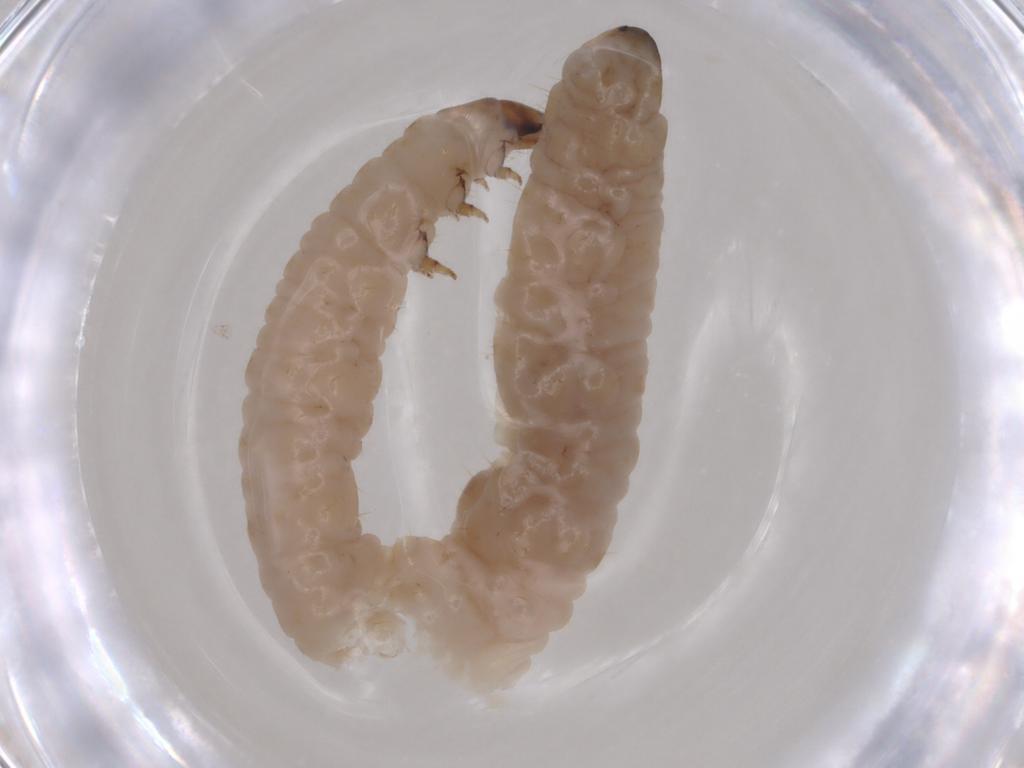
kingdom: Animalia
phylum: Arthropoda
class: Insecta
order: Coleoptera
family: Chrysomelidae
